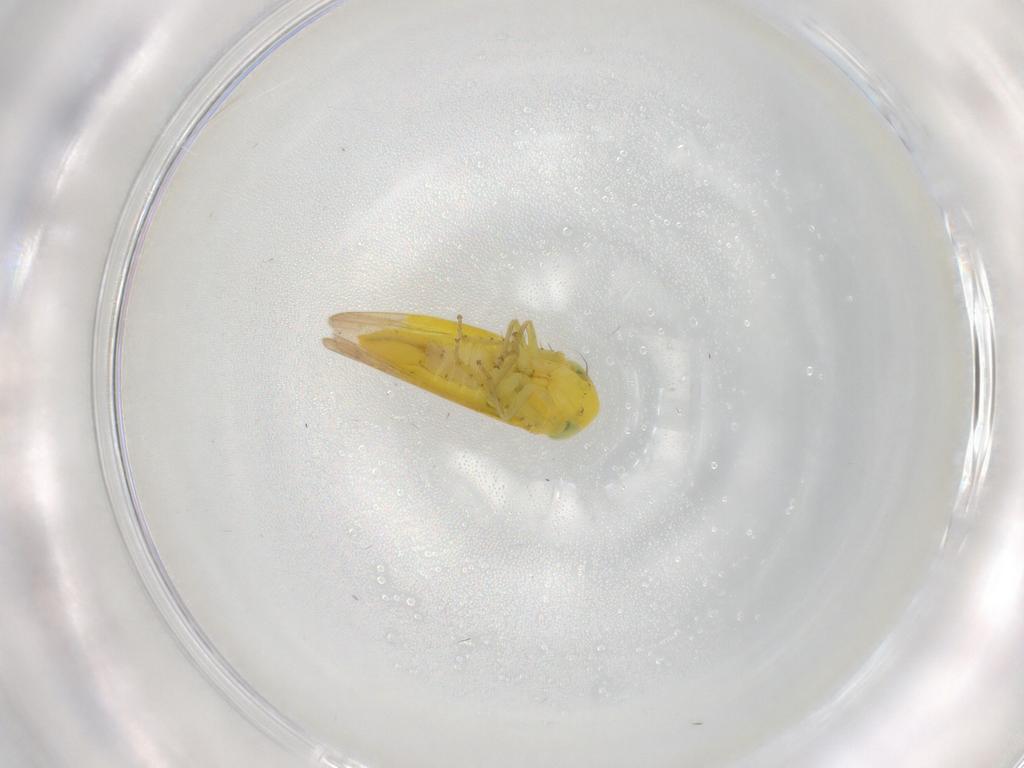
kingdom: Animalia
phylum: Arthropoda
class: Insecta
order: Hemiptera
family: Cicadellidae
